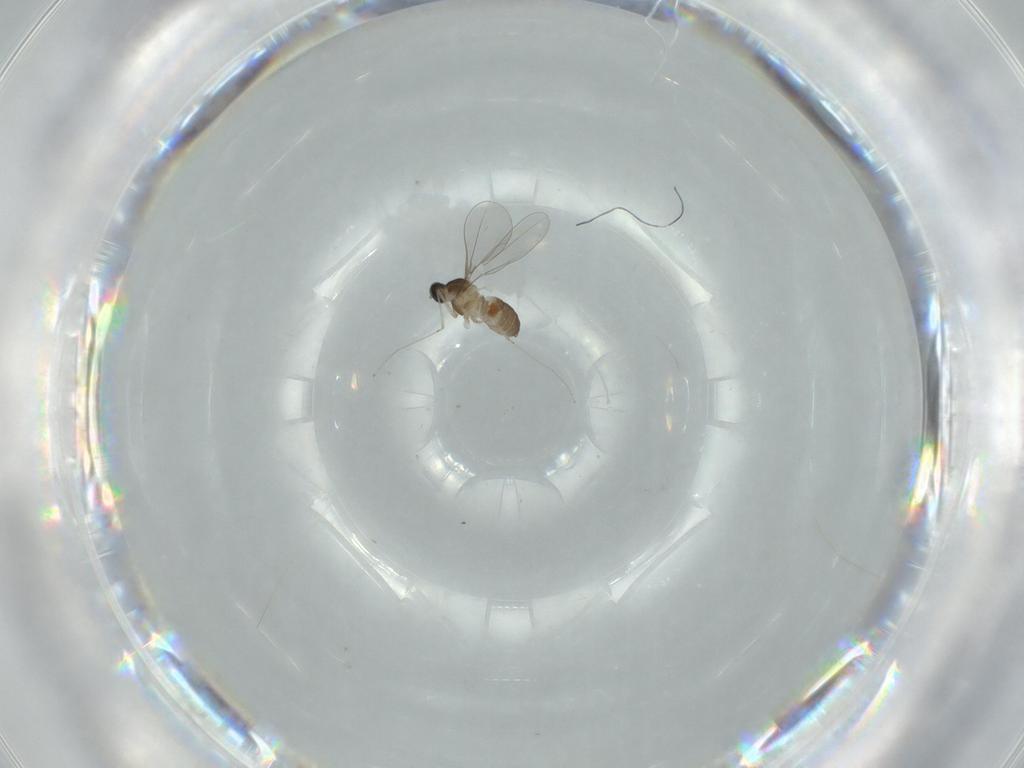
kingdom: Animalia
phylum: Arthropoda
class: Insecta
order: Diptera
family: Cecidomyiidae
